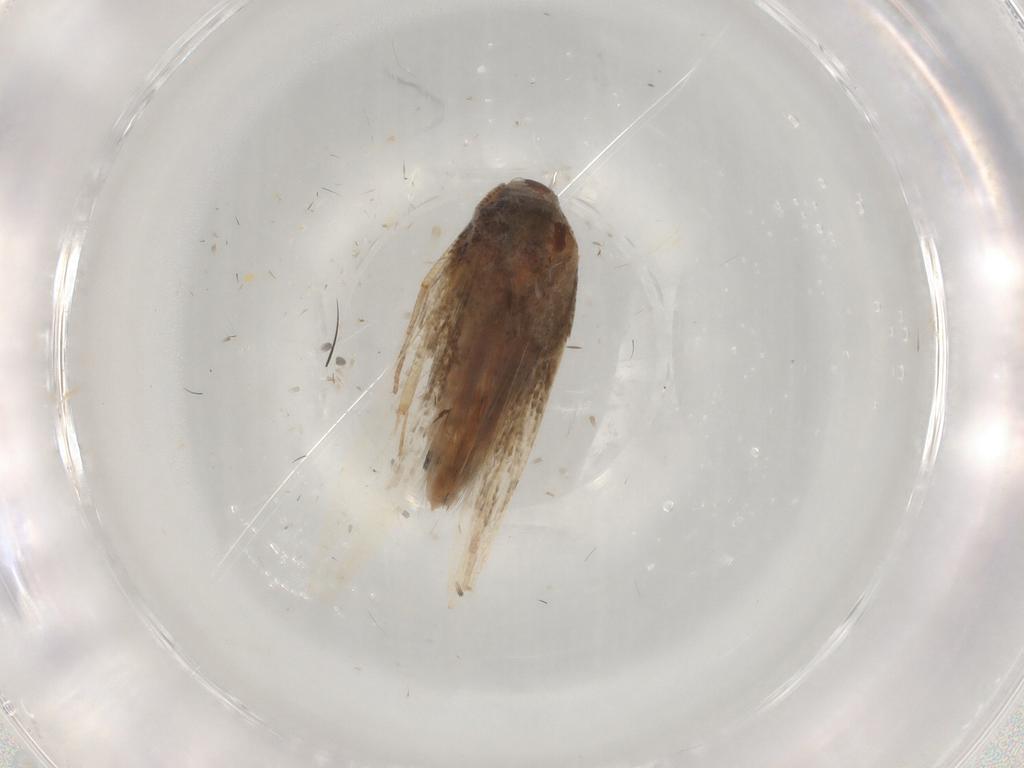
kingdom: Animalia
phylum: Arthropoda
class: Insecta
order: Lepidoptera
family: Cosmopterigidae
